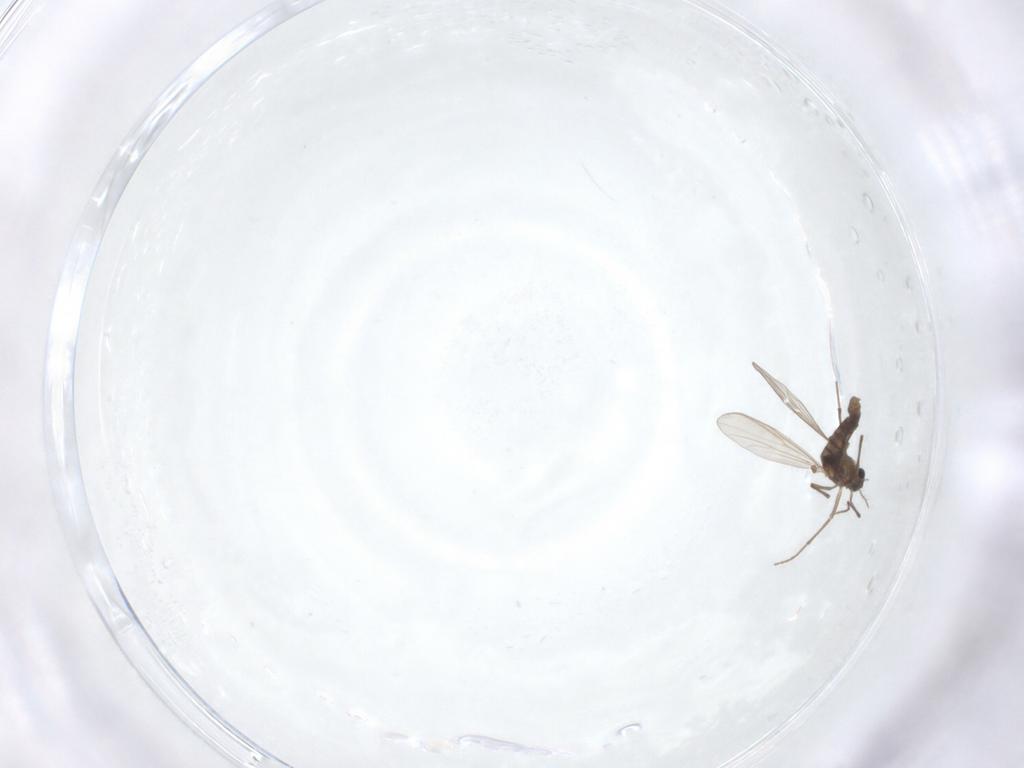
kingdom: Animalia
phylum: Arthropoda
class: Insecta
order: Diptera
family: Chironomidae
